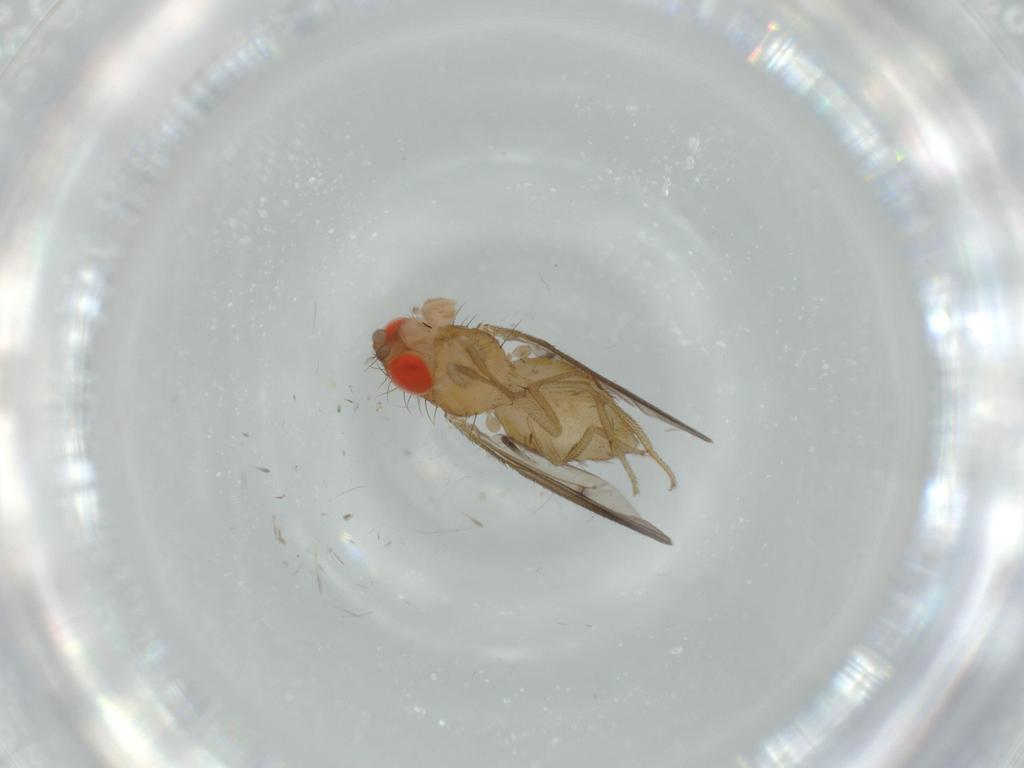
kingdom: Animalia
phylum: Arthropoda
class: Insecta
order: Diptera
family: Drosophilidae
